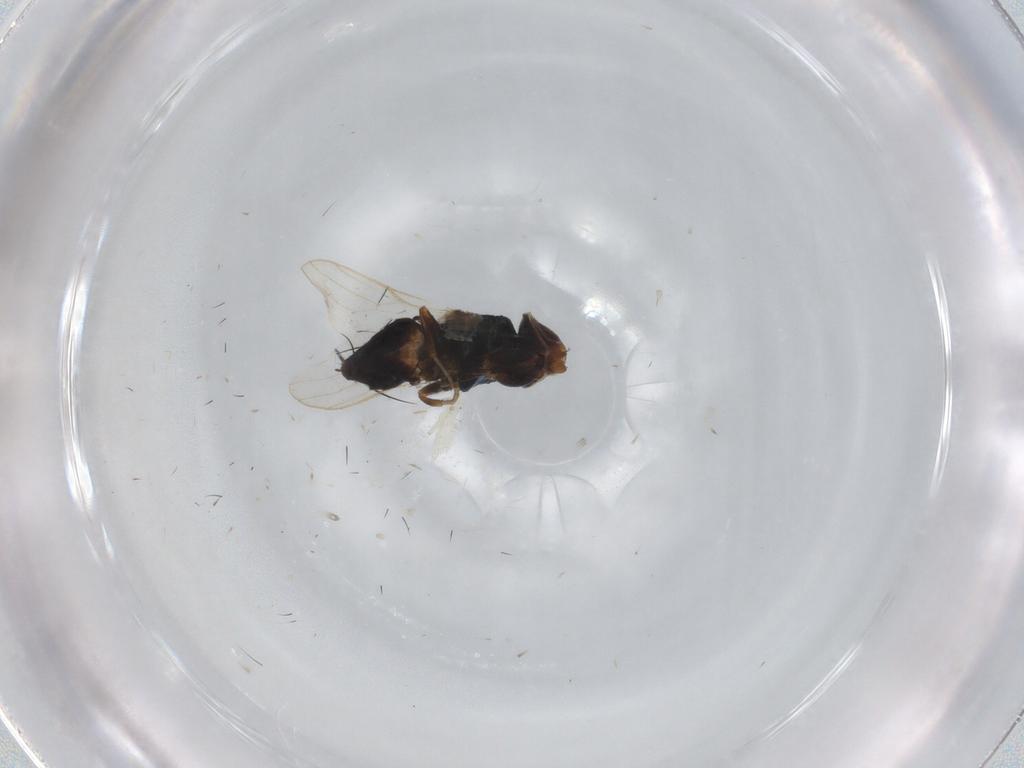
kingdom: Animalia
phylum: Arthropoda
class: Insecta
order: Diptera
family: Chloropidae
